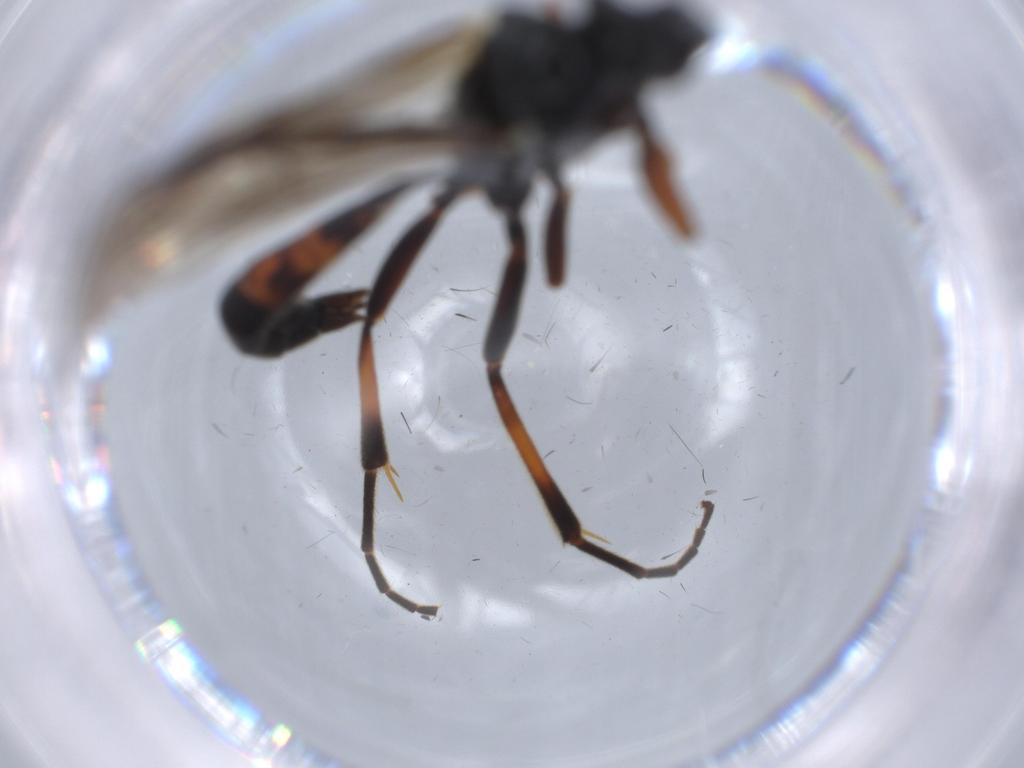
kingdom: Animalia
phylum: Arthropoda
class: Insecta
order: Hymenoptera
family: Ichneumonidae
